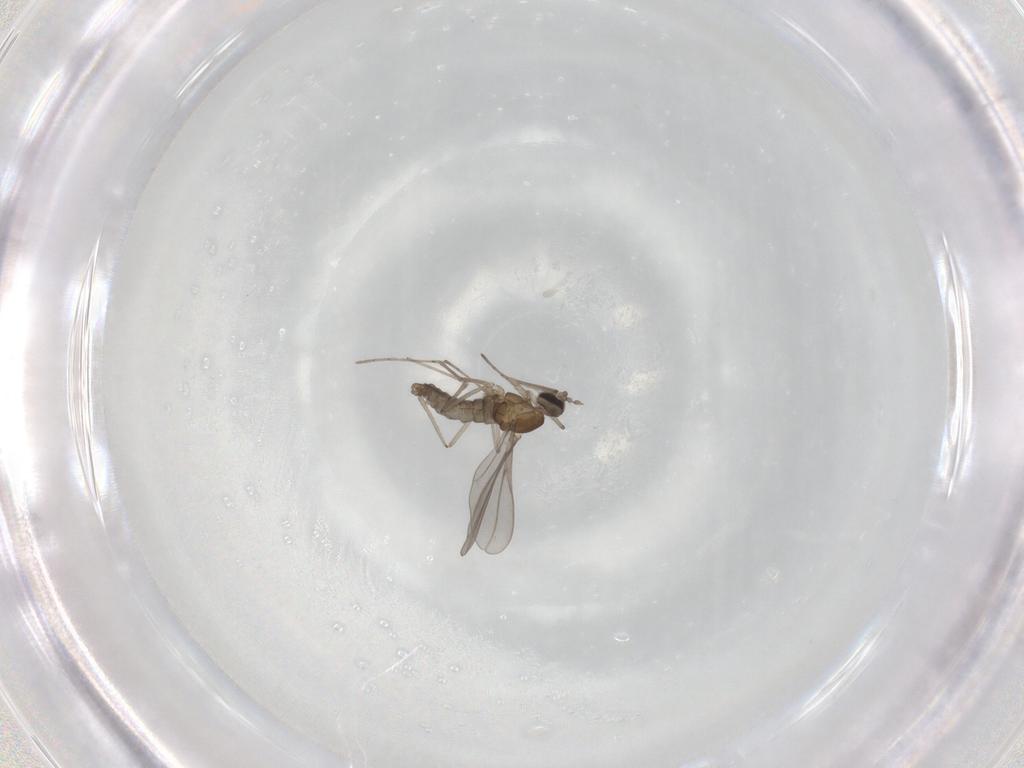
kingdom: Animalia
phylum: Arthropoda
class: Insecta
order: Diptera
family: Cecidomyiidae
